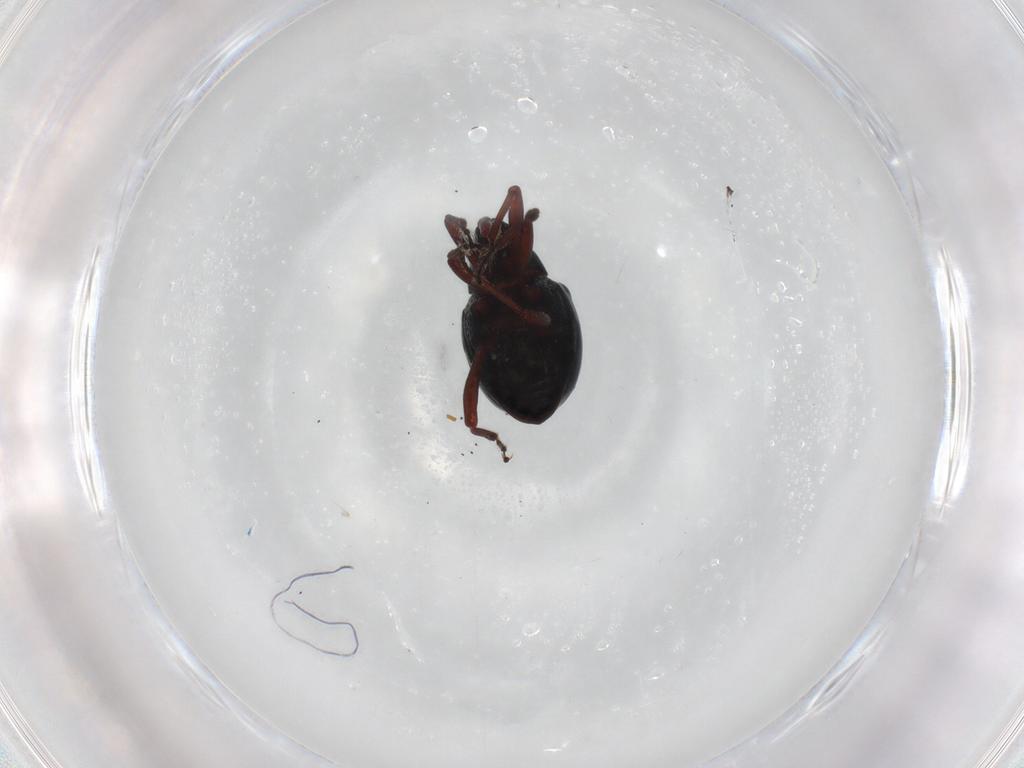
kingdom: Animalia
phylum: Arthropoda
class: Insecta
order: Coleoptera
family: Curculionidae
